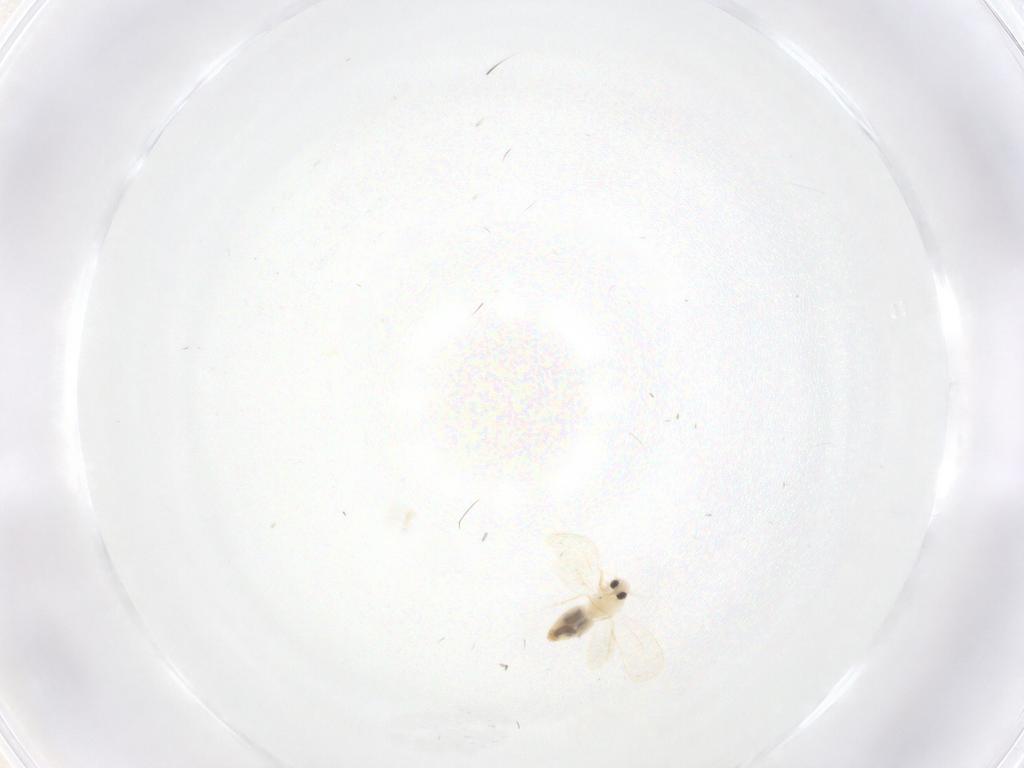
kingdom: Animalia
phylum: Arthropoda
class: Insecta
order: Hemiptera
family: Aleyrodidae
